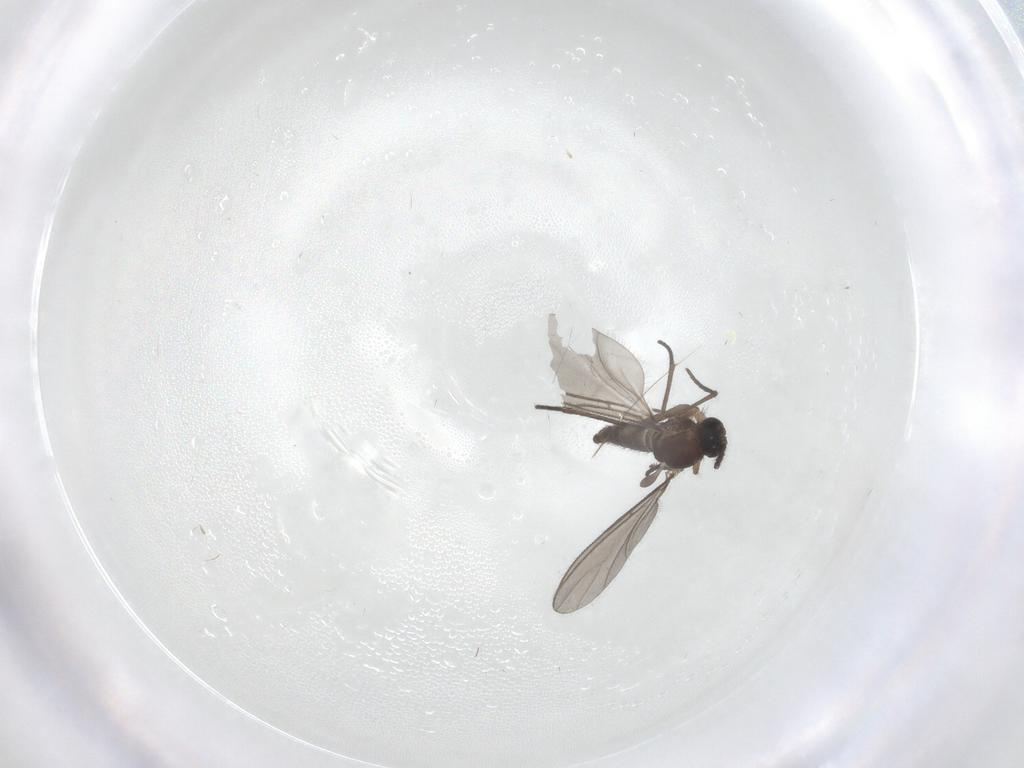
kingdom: Animalia
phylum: Arthropoda
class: Insecta
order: Diptera
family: Sciaridae
